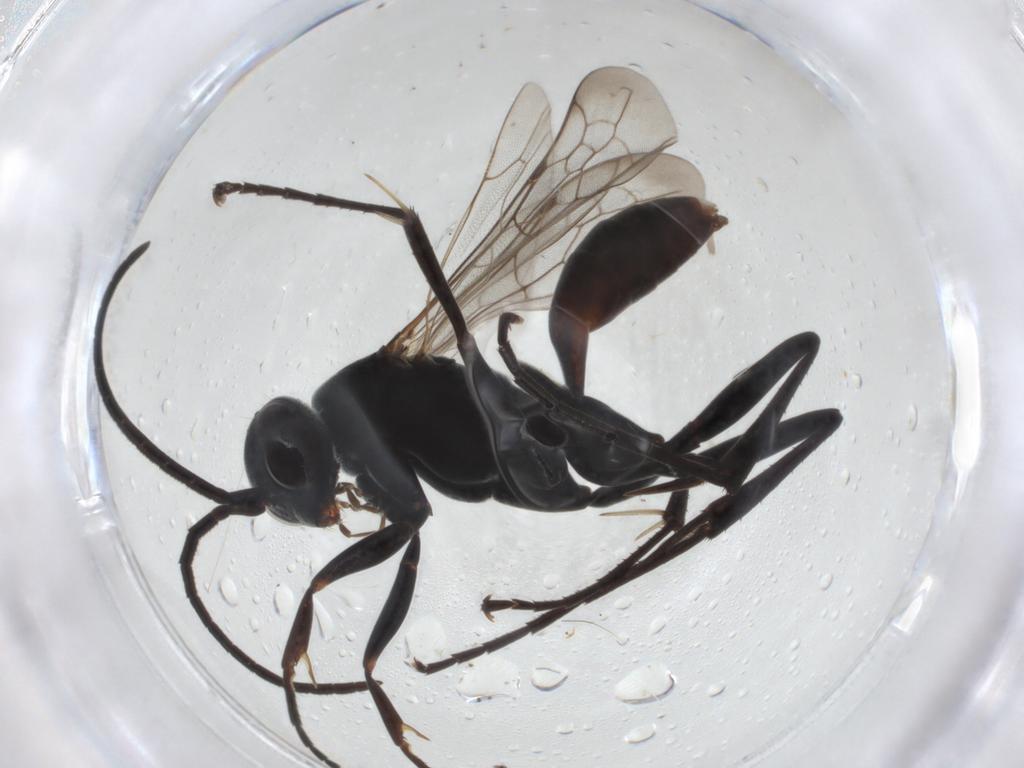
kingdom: Animalia
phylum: Arthropoda
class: Insecta
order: Hymenoptera
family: Pompilidae
